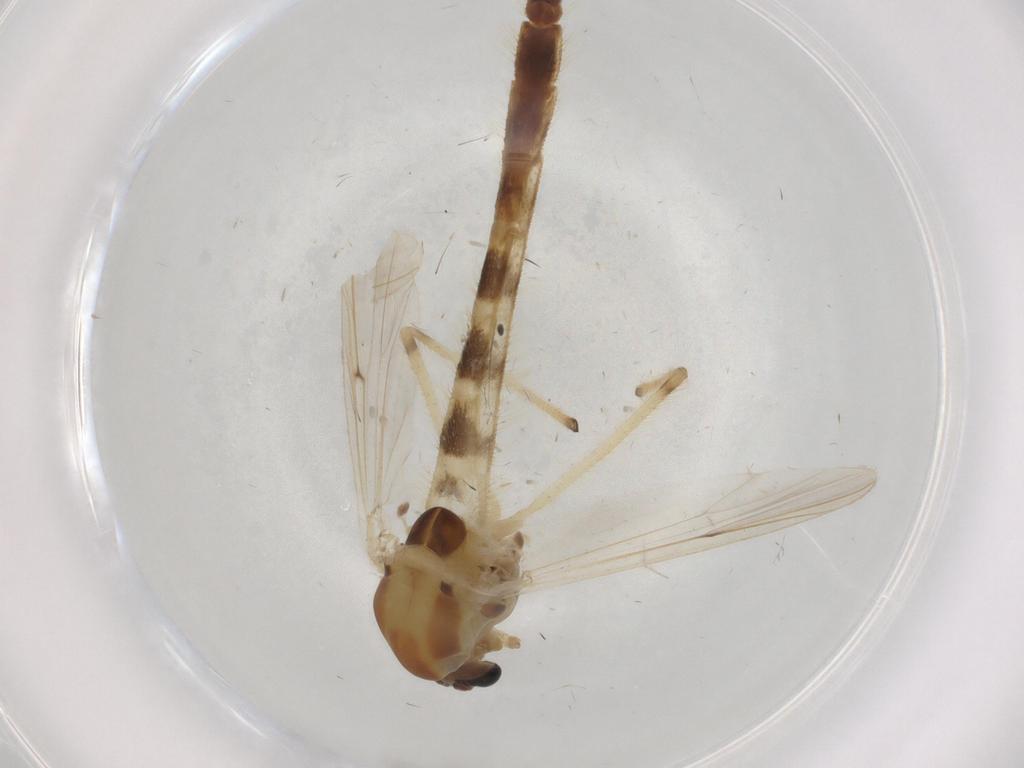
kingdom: Animalia
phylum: Arthropoda
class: Insecta
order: Diptera
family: Chironomidae
